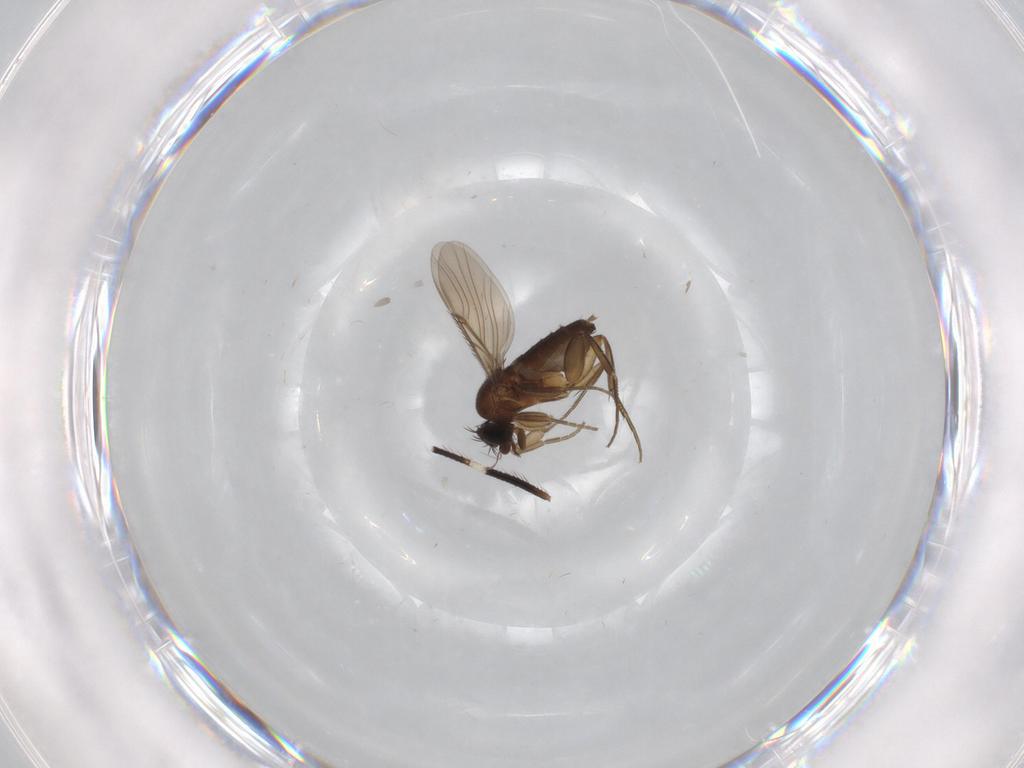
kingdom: Animalia
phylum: Arthropoda
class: Insecta
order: Diptera
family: Phoridae
